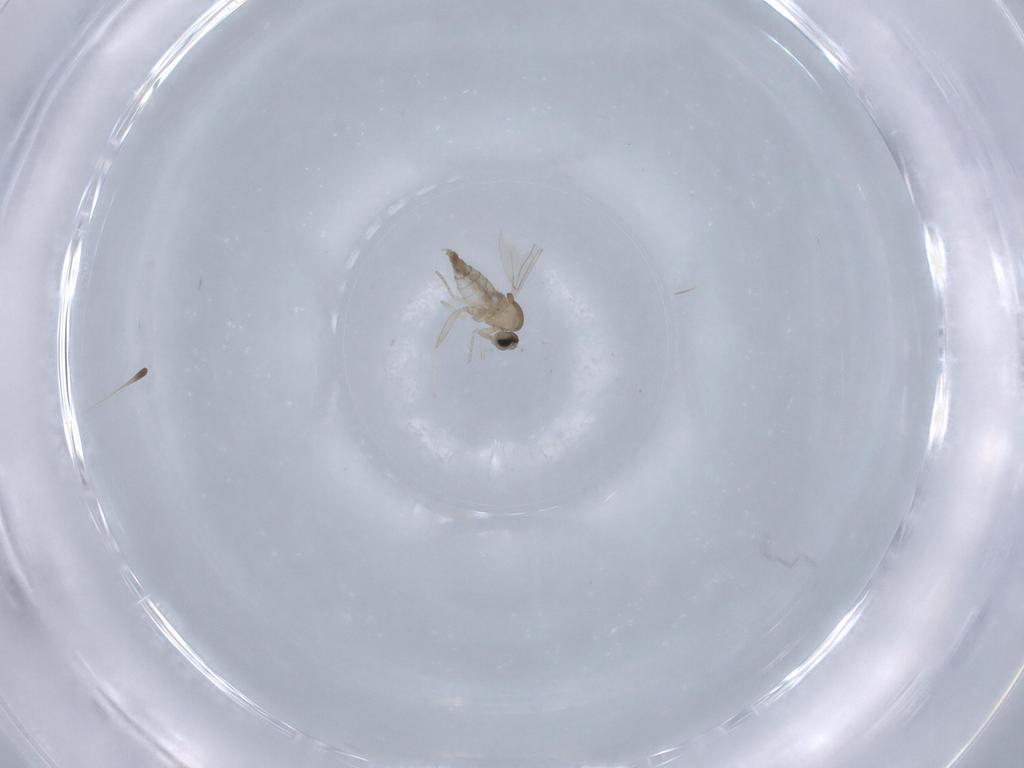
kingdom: Animalia
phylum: Arthropoda
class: Insecta
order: Diptera
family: Cecidomyiidae
